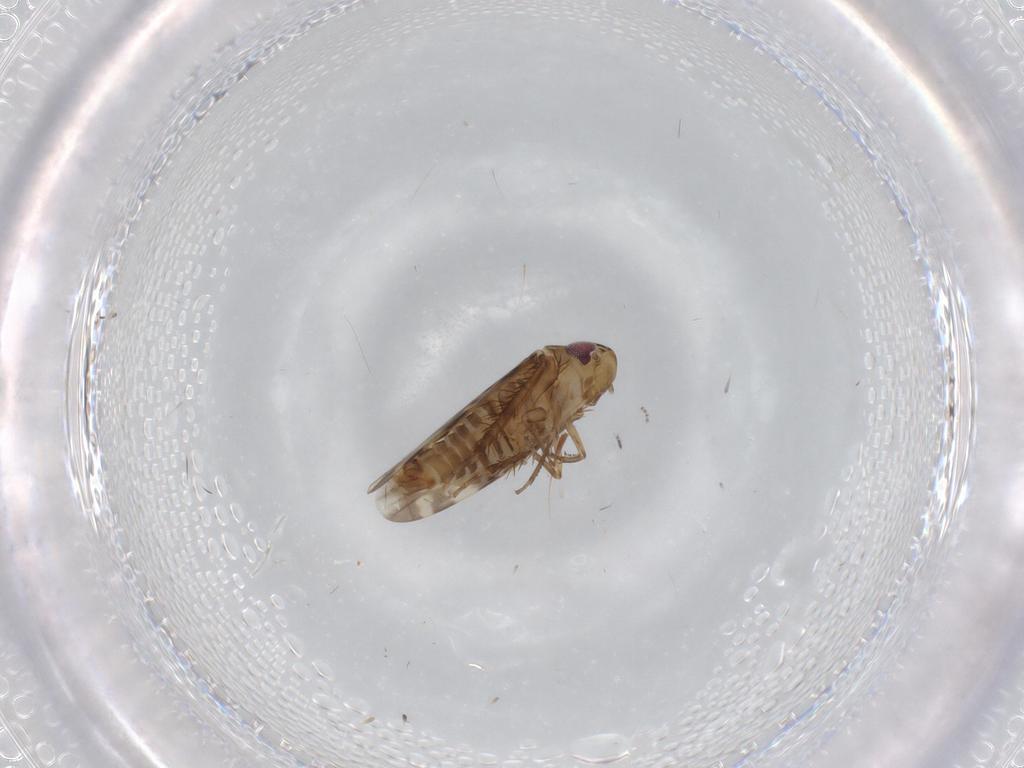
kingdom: Animalia
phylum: Arthropoda
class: Insecta
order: Hemiptera
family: Cicadellidae
